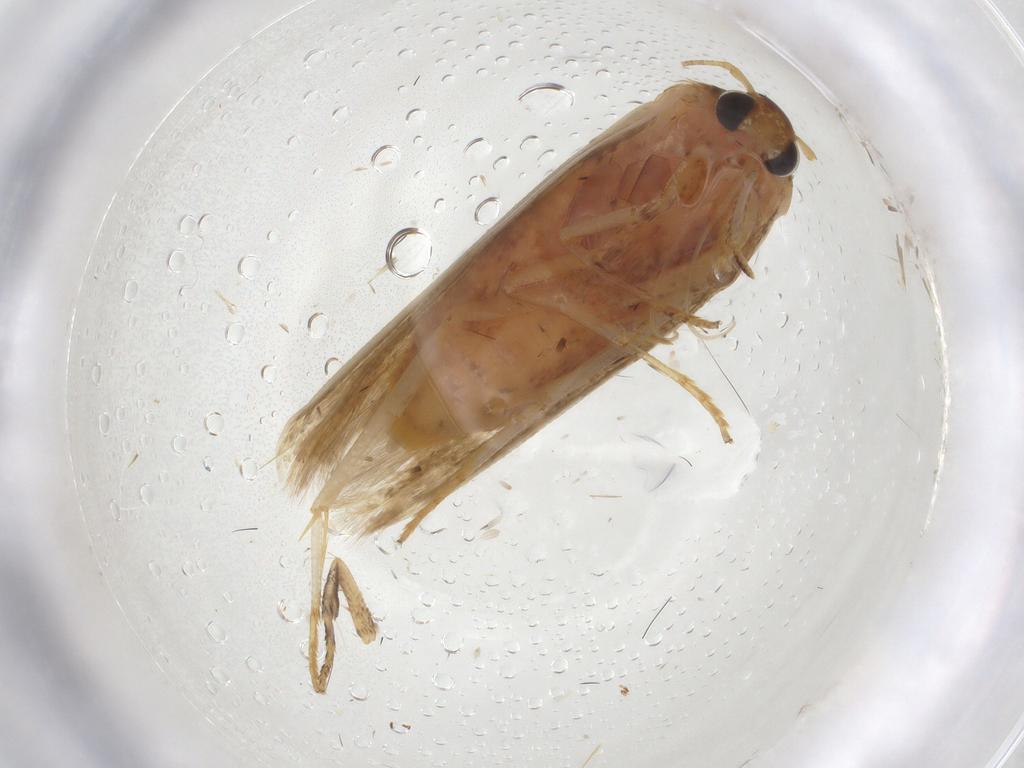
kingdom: Animalia
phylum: Arthropoda
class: Insecta
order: Lepidoptera
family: Blastobasidae
